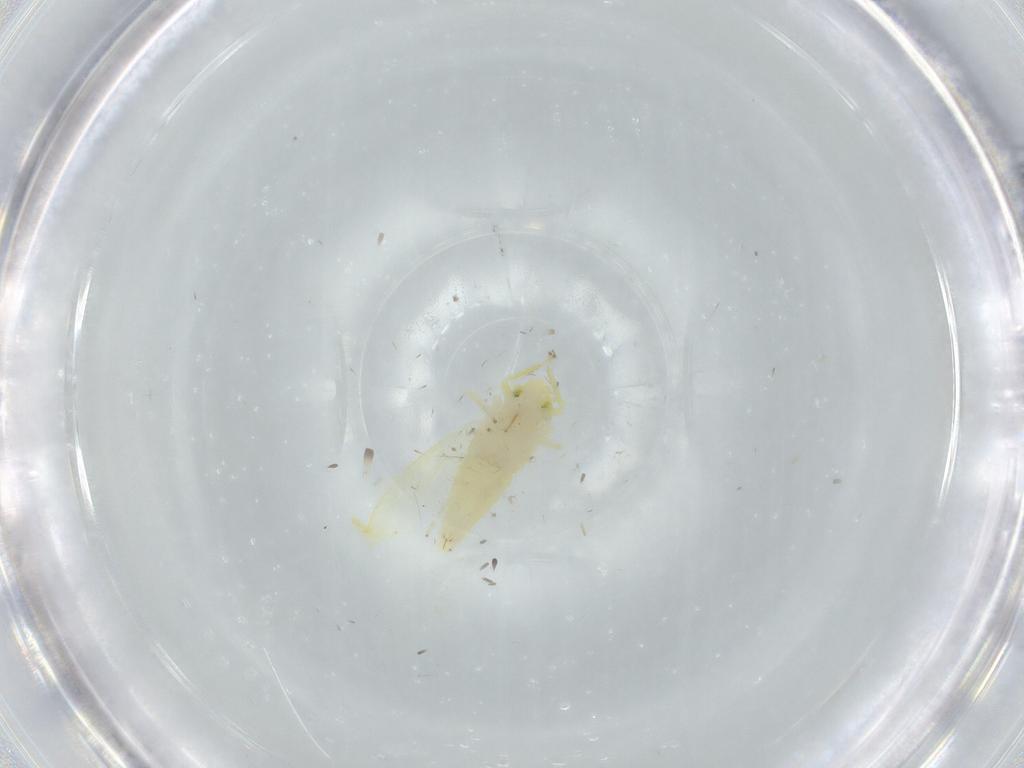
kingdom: Animalia
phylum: Arthropoda
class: Insecta
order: Hemiptera
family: Cicadellidae
